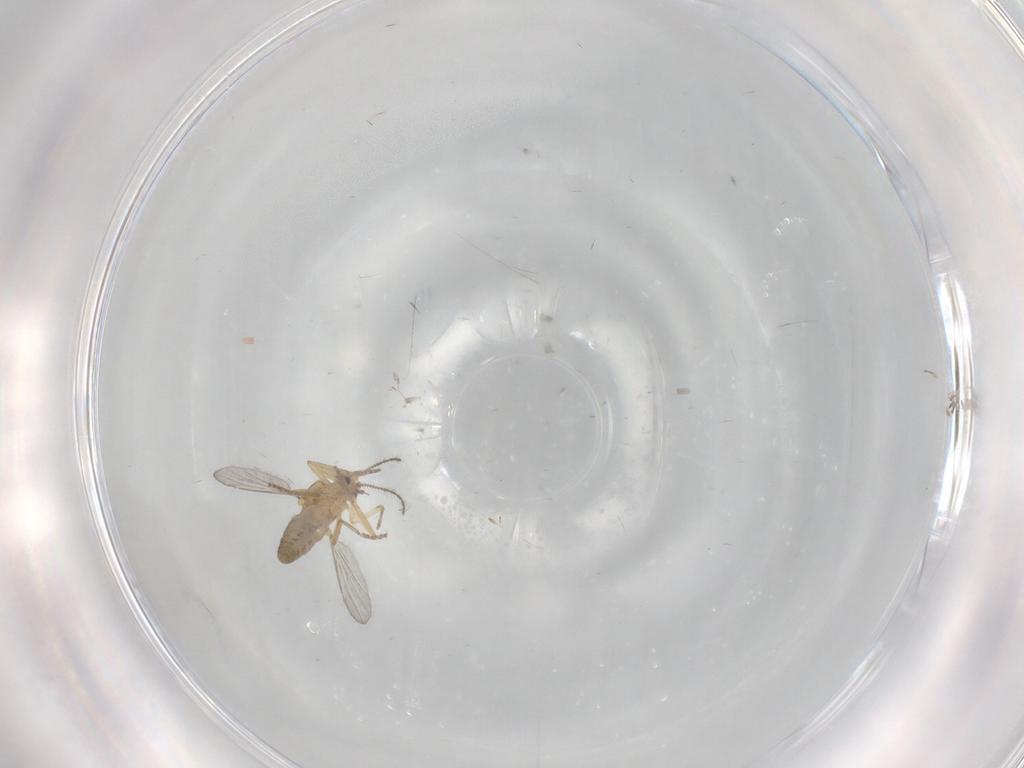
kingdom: Animalia
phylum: Arthropoda
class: Insecta
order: Diptera
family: Ceratopogonidae
